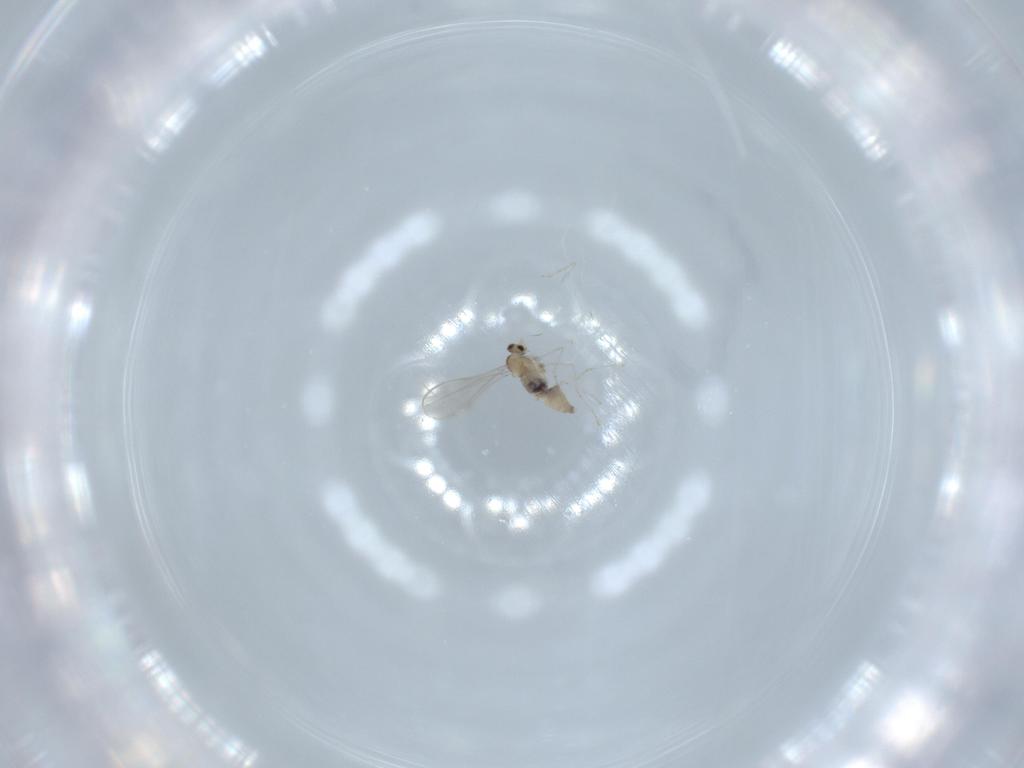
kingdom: Animalia
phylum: Arthropoda
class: Insecta
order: Diptera
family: Cecidomyiidae
